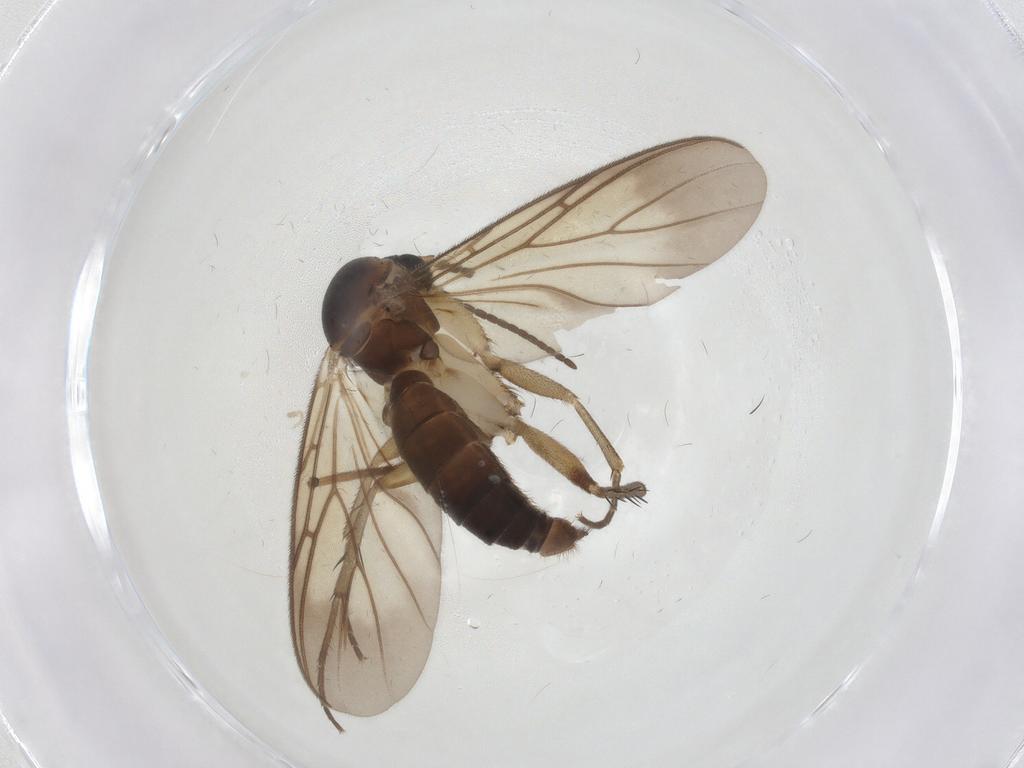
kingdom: Animalia
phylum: Arthropoda
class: Insecta
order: Diptera
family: Mycetophilidae
